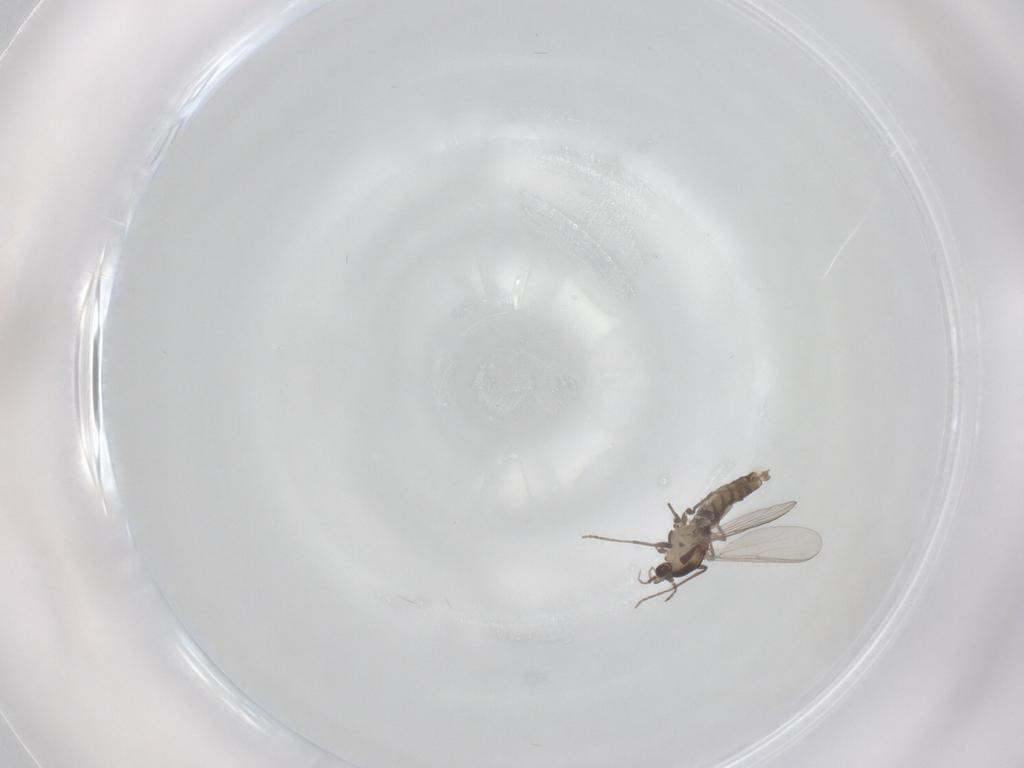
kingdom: Animalia
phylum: Arthropoda
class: Insecta
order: Diptera
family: Limoniidae
